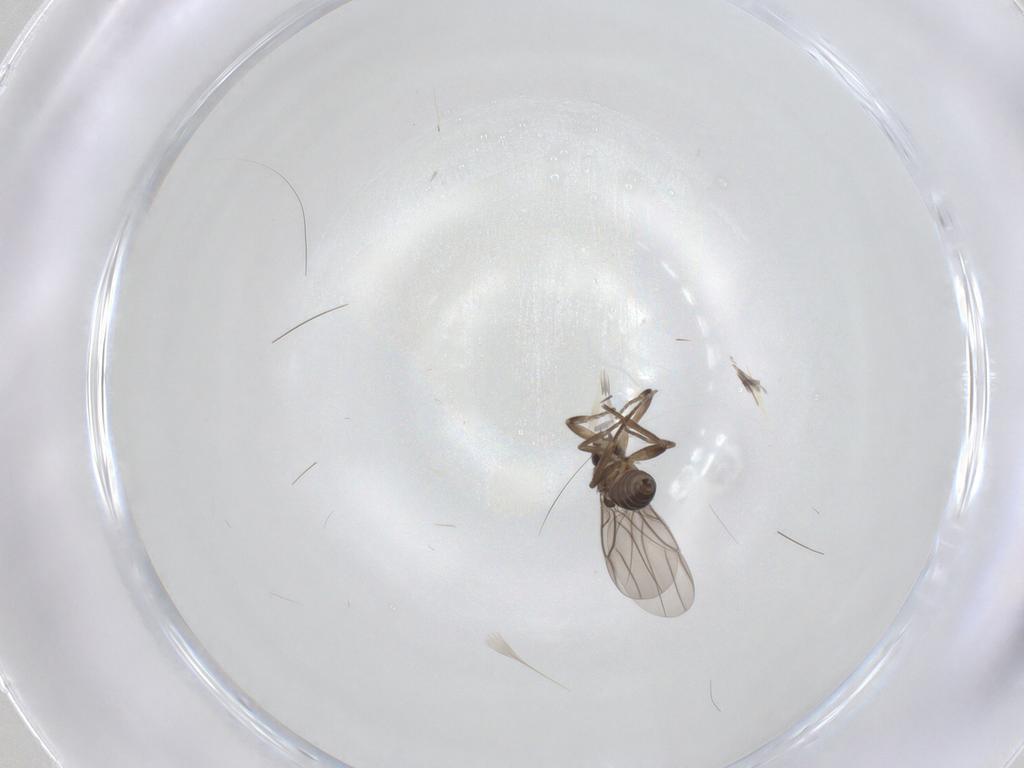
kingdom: Animalia
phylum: Arthropoda
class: Insecta
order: Diptera
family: Phoridae
